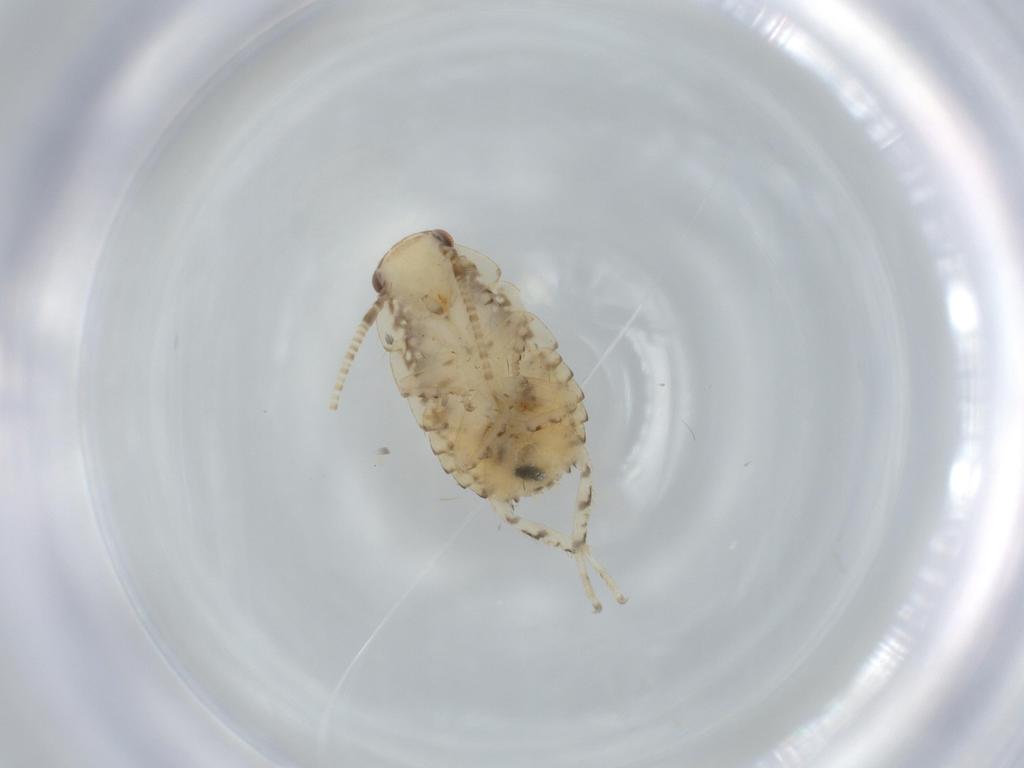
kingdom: Animalia
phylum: Arthropoda
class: Insecta
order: Blattodea
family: Ectobiidae
